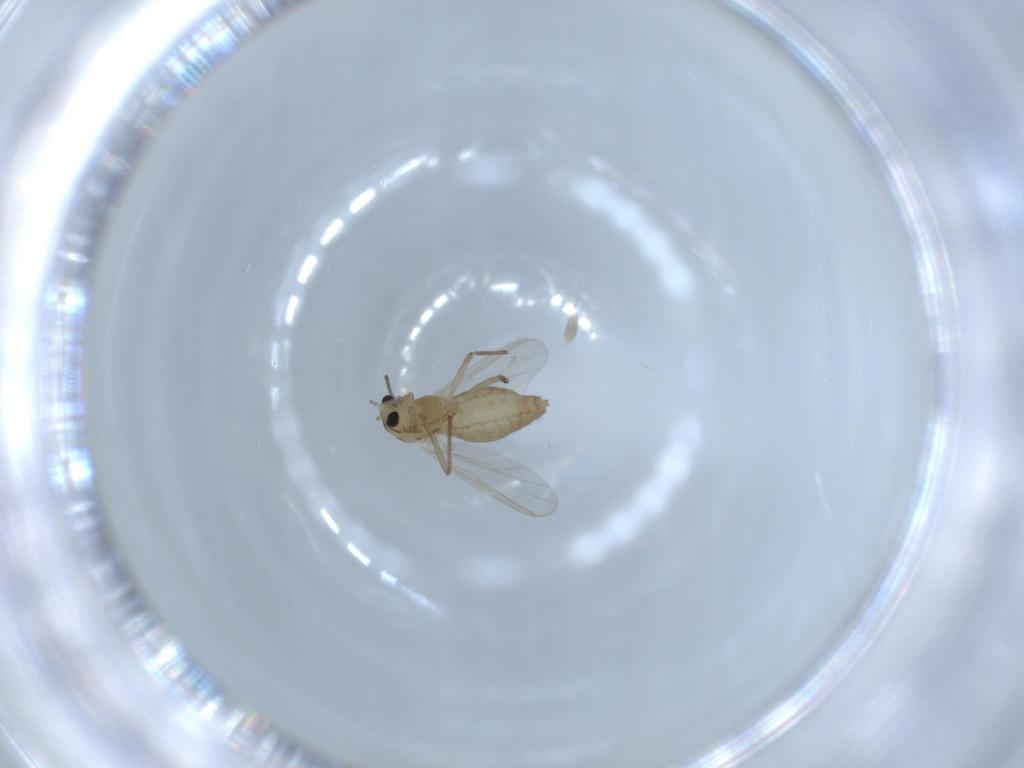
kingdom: Animalia
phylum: Arthropoda
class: Insecta
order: Diptera
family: Chironomidae
